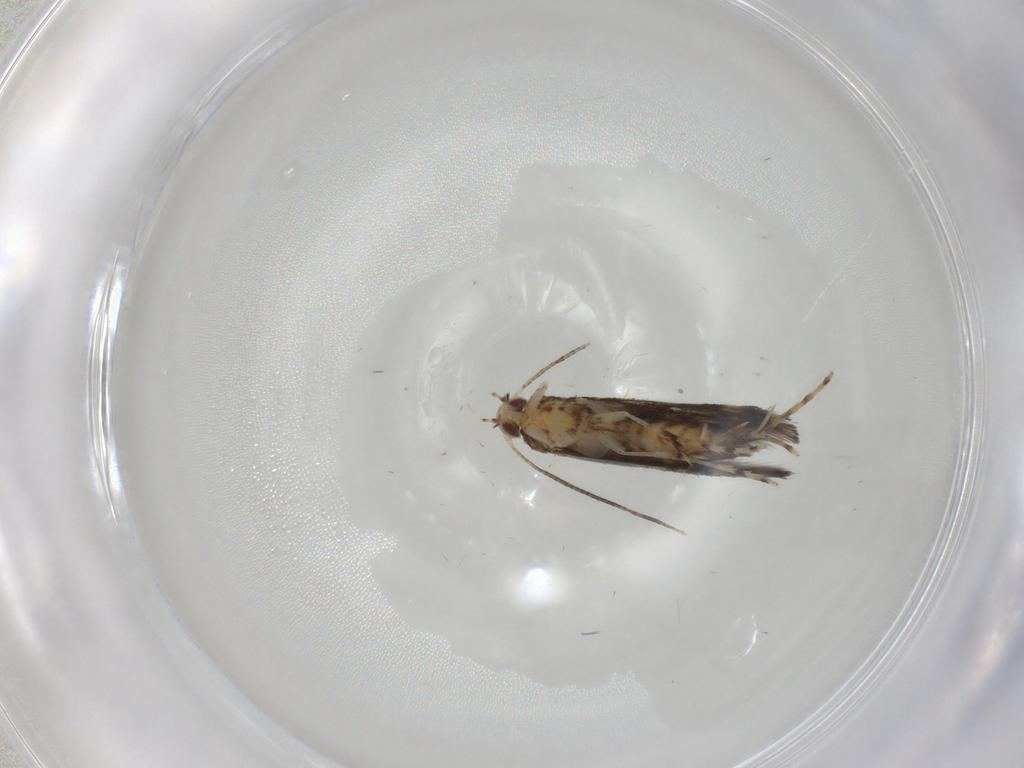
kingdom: Animalia
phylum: Arthropoda
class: Insecta
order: Lepidoptera
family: Gracillariidae
